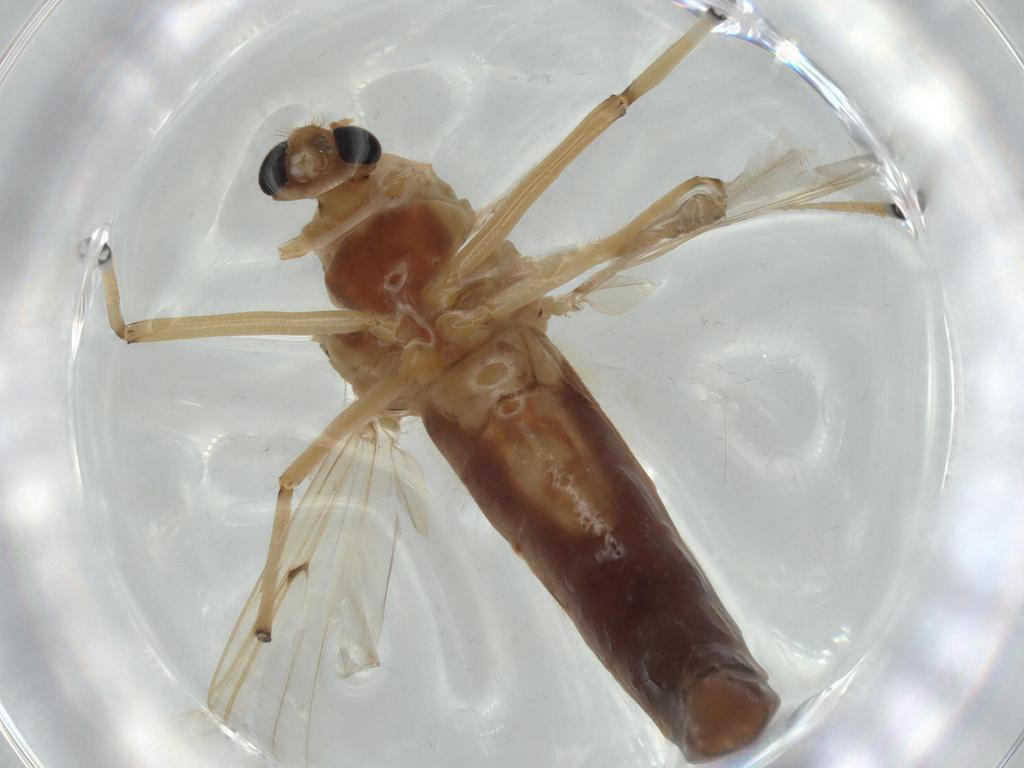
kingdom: Animalia
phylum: Arthropoda
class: Insecta
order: Diptera
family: Chironomidae
